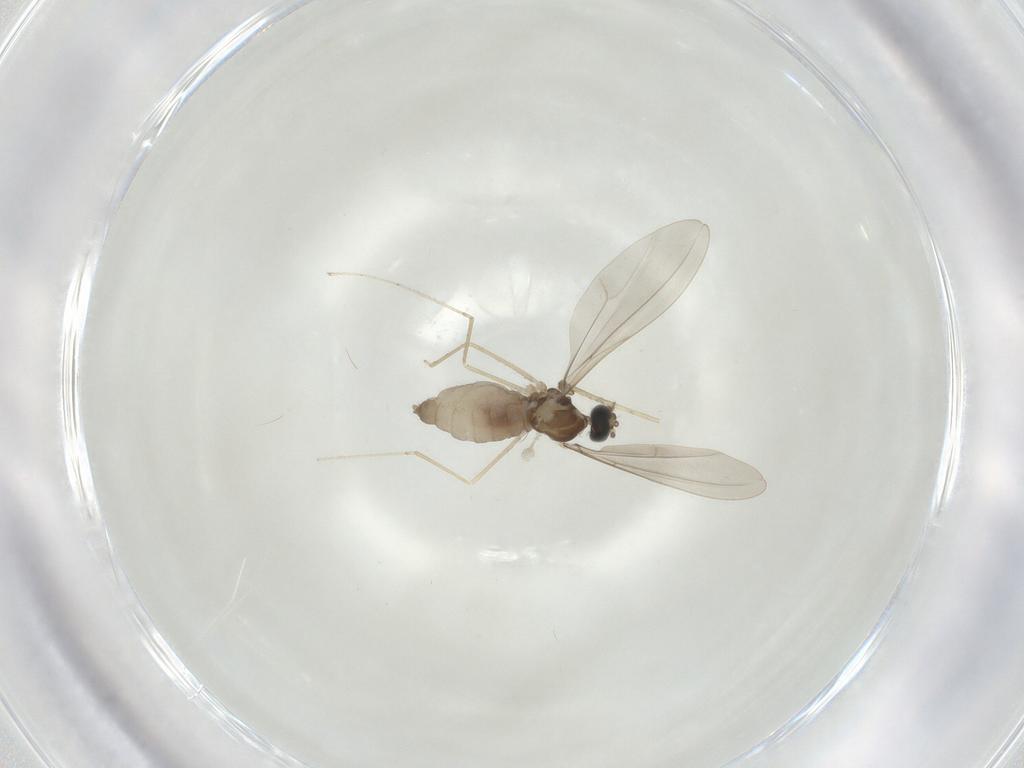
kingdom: Animalia
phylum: Arthropoda
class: Insecta
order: Diptera
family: Cecidomyiidae
